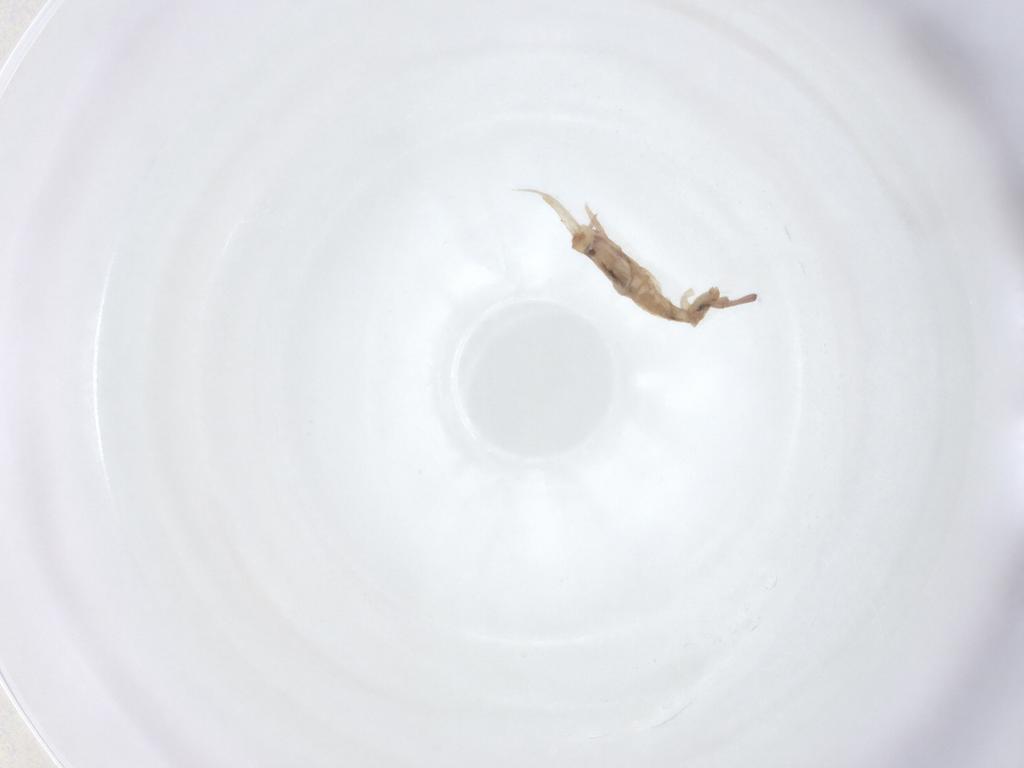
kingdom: Animalia
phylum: Arthropoda
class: Collembola
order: Entomobryomorpha
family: Entomobryidae
